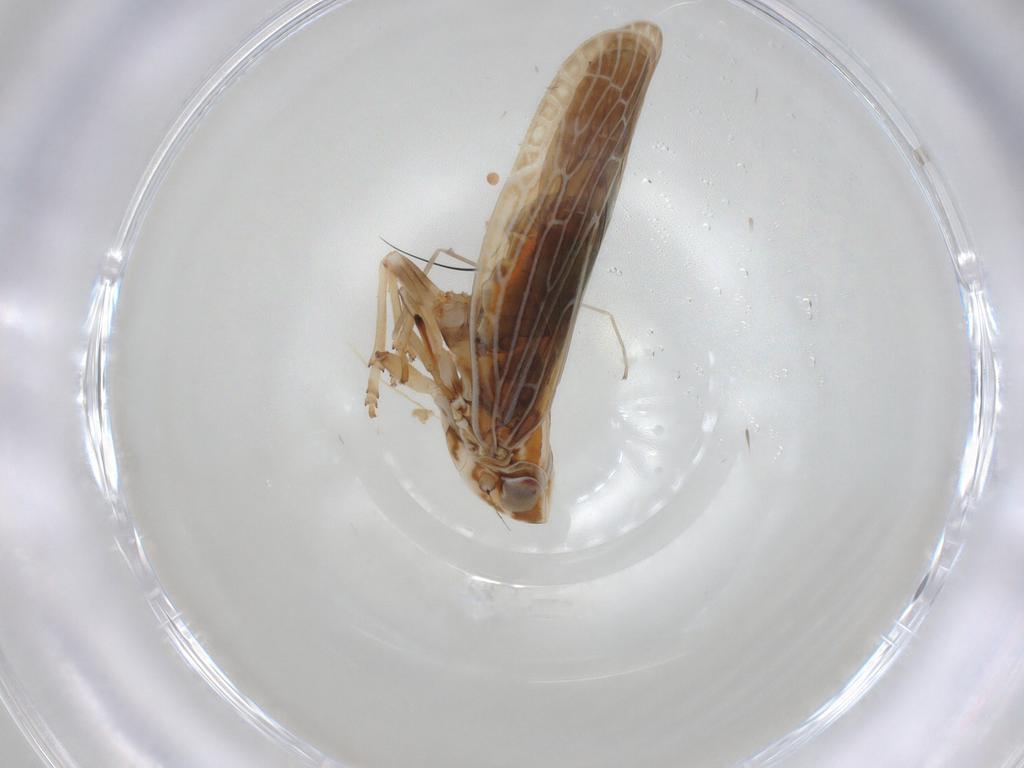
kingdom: Animalia
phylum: Arthropoda
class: Insecta
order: Hemiptera
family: Achilidae
